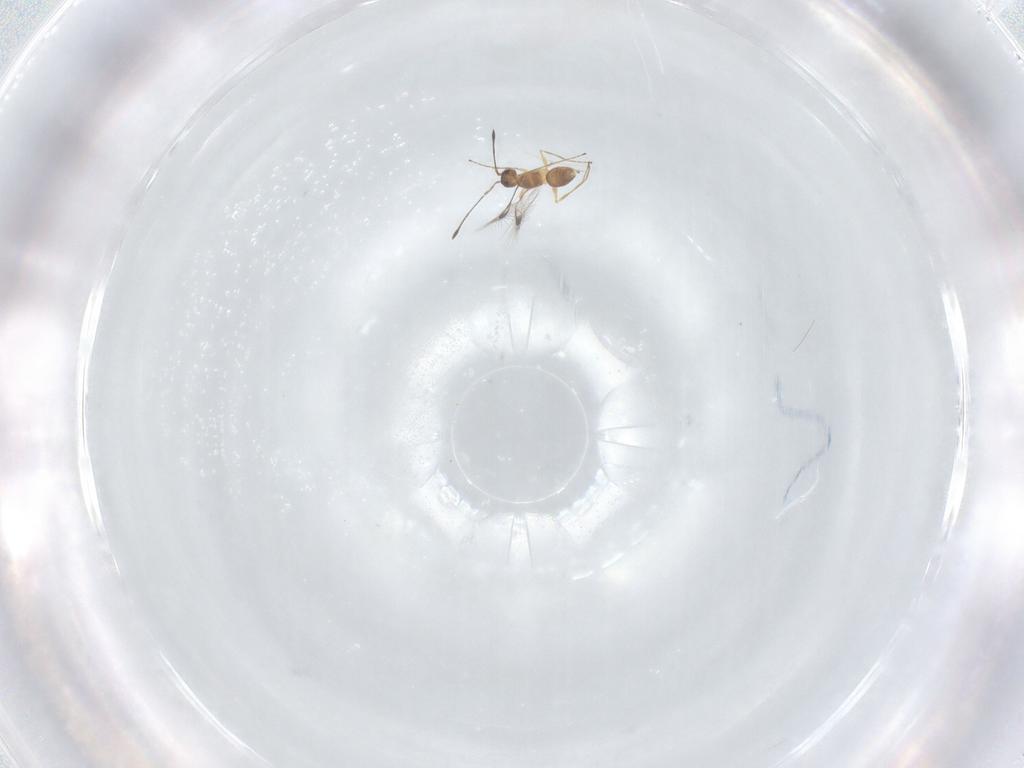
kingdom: Animalia
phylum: Arthropoda
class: Insecta
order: Hymenoptera
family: Mymaridae
